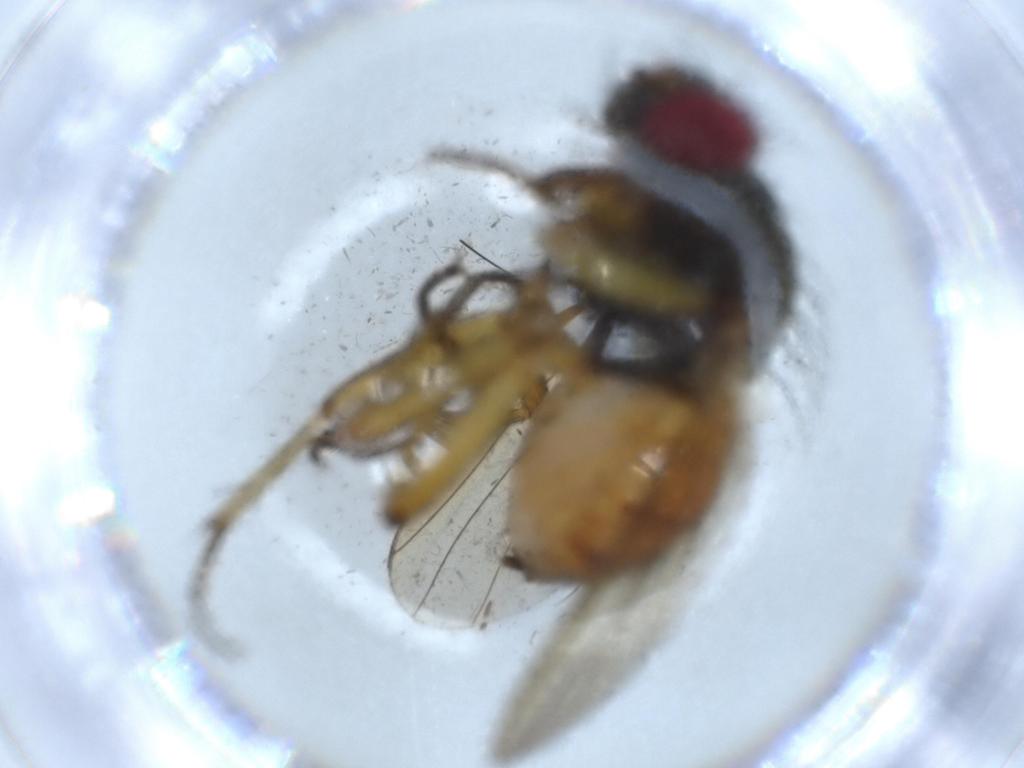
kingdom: Animalia
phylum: Arthropoda
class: Insecta
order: Diptera
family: Muscidae
